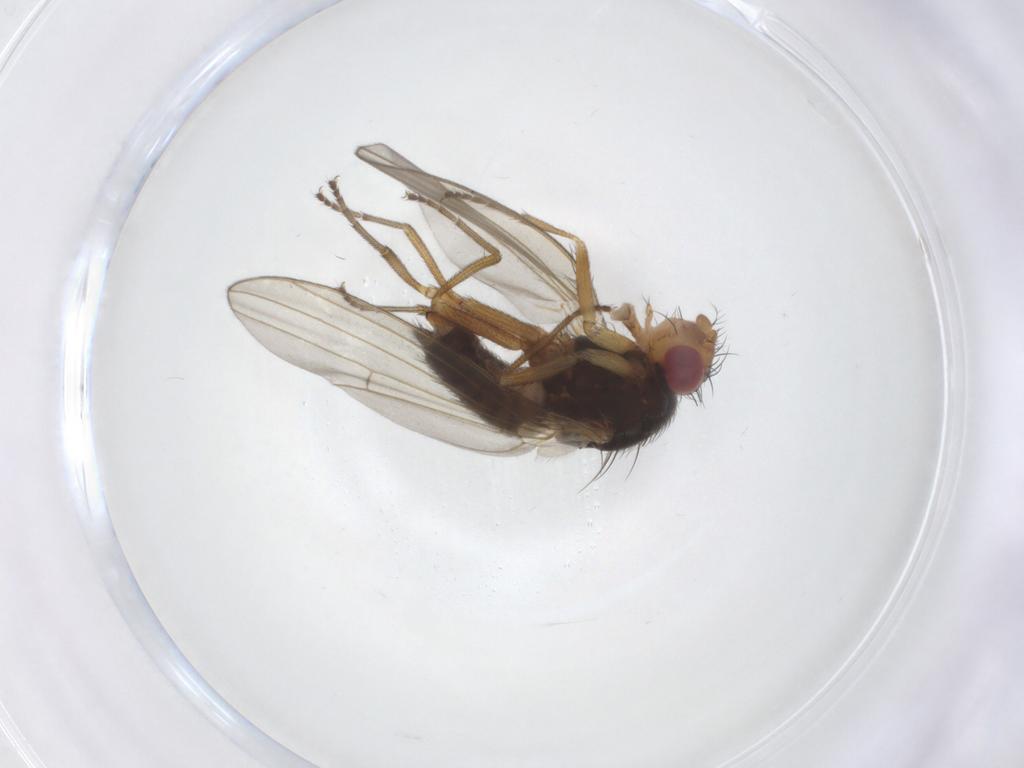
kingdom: Animalia
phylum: Arthropoda
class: Insecta
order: Diptera
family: Drosophilidae
